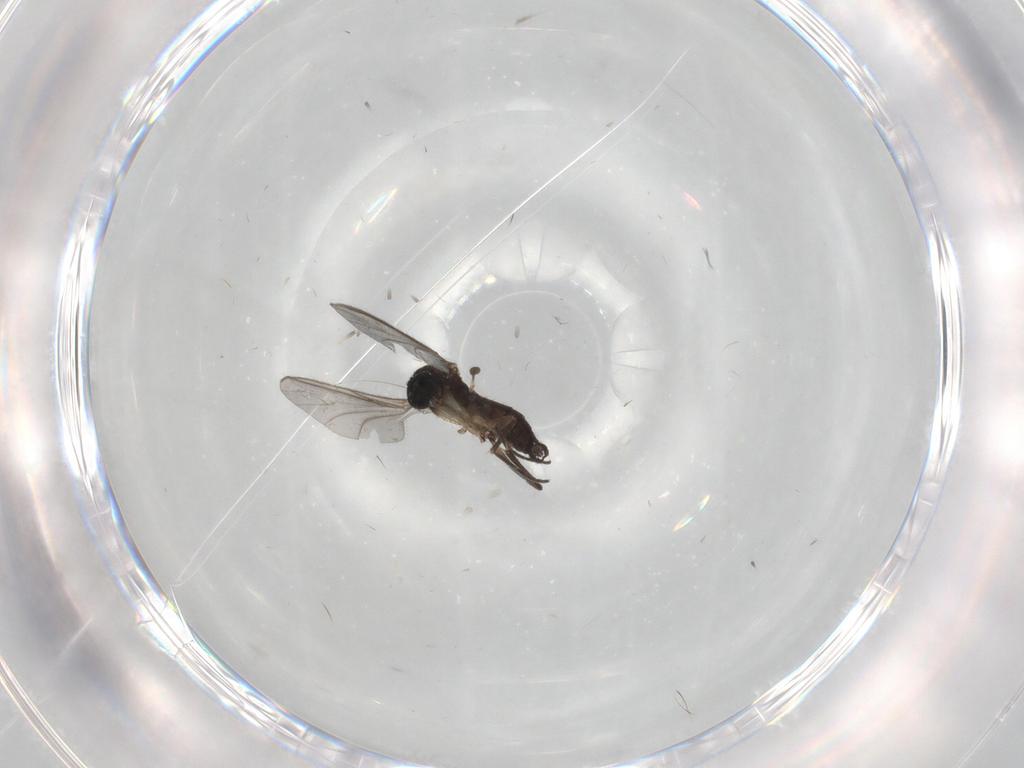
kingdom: Animalia
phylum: Arthropoda
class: Insecta
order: Diptera
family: Sciaridae
